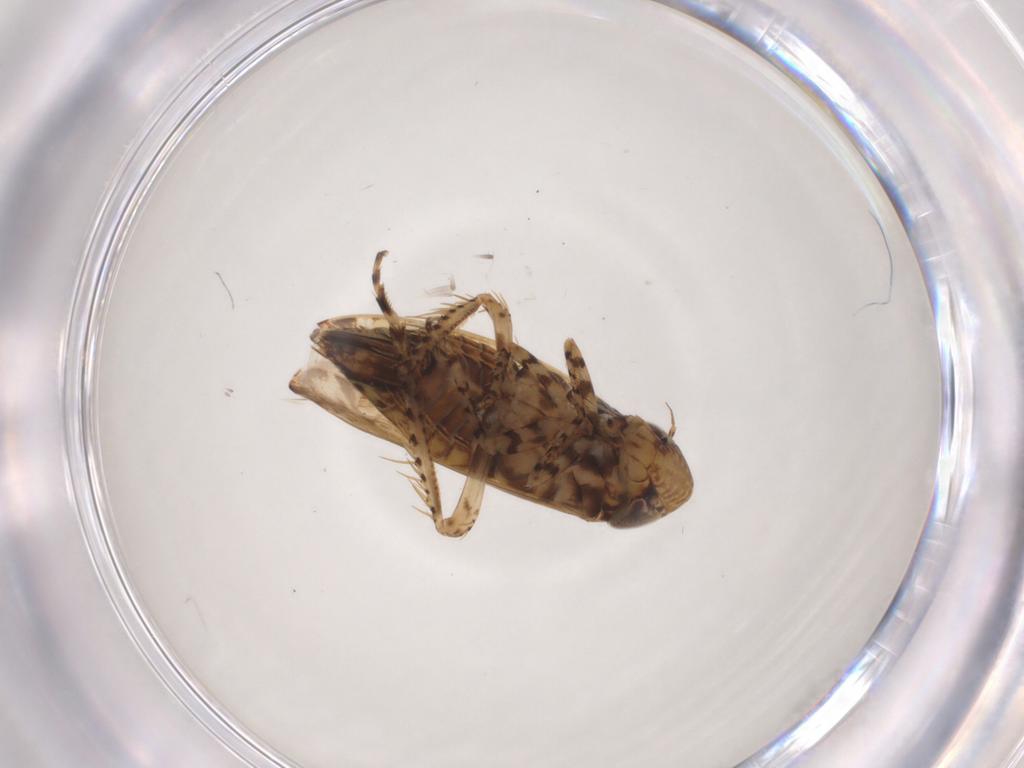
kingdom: Animalia
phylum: Arthropoda
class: Insecta
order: Hemiptera
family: Cicadellidae
